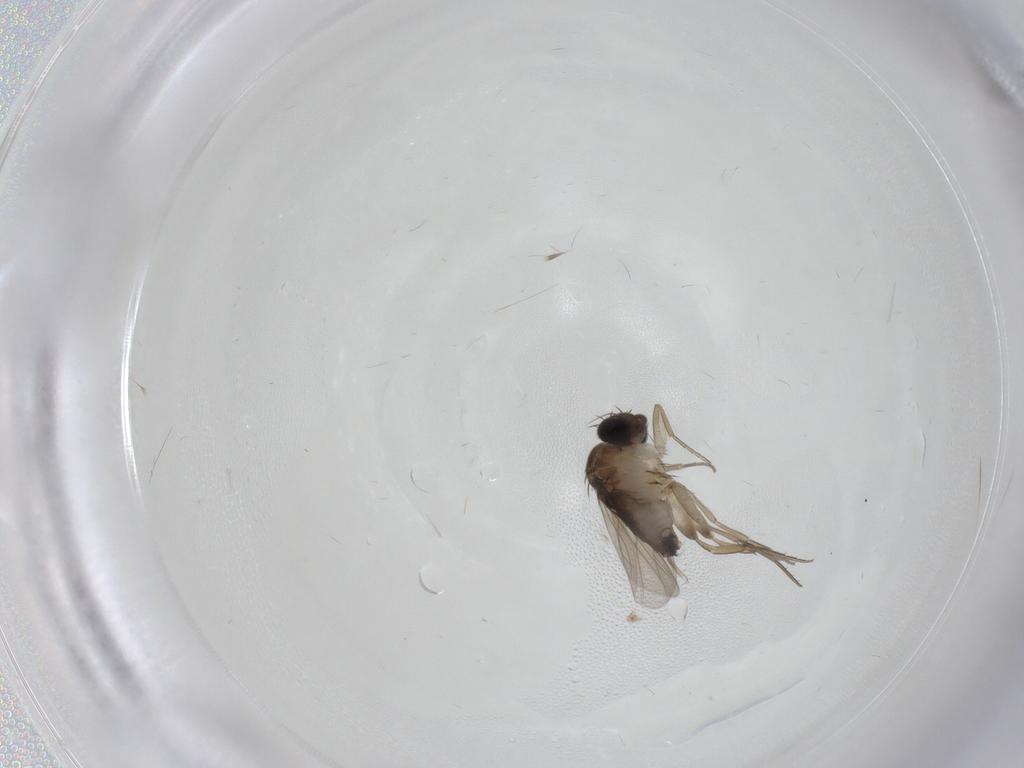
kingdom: Animalia
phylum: Arthropoda
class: Insecta
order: Diptera
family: Phoridae
